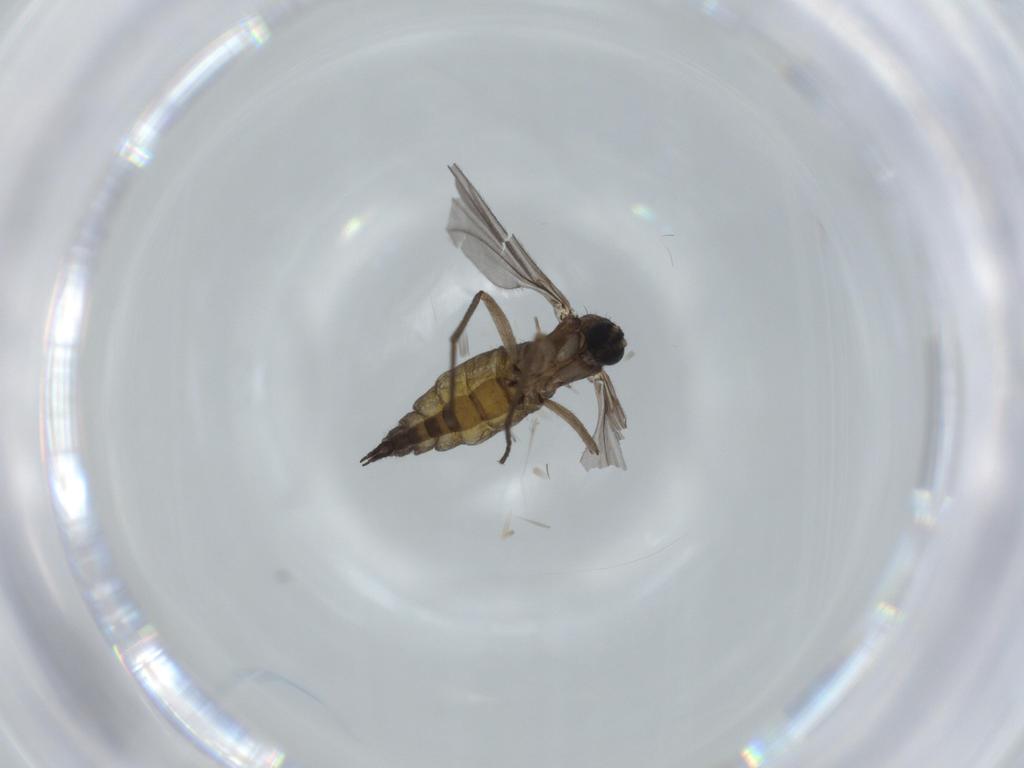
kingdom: Animalia
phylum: Arthropoda
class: Insecta
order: Diptera
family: Sciaridae
